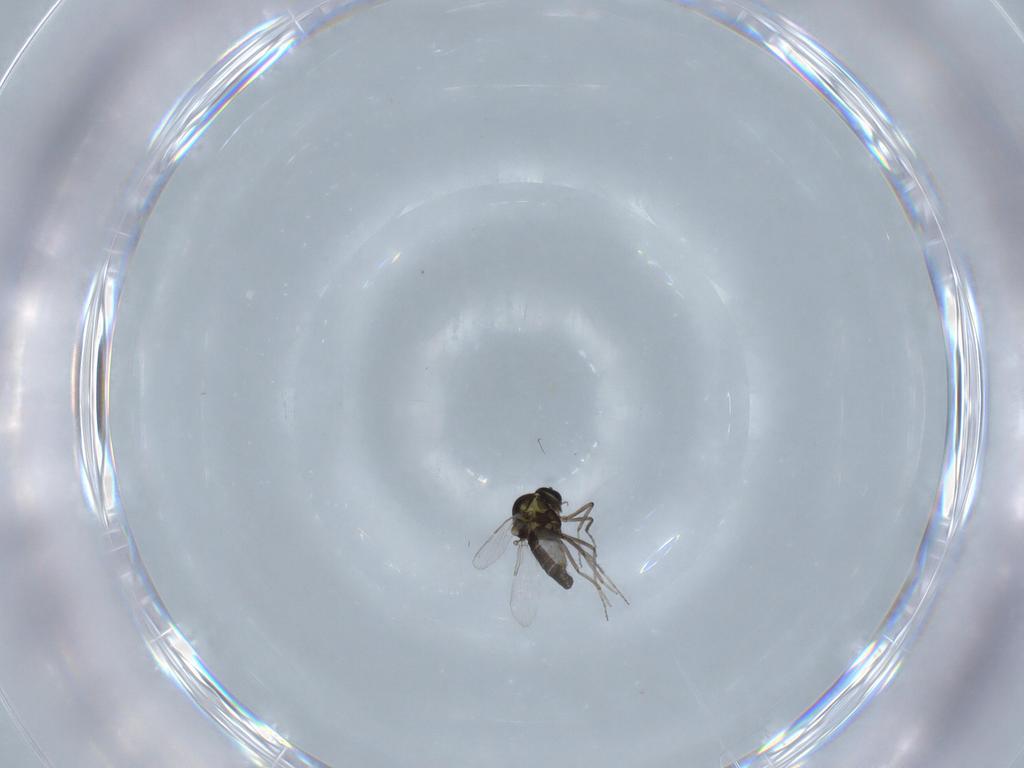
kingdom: Animalia
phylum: Arthropoda
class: Insecta
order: Diptera
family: Ceratopogonidae
